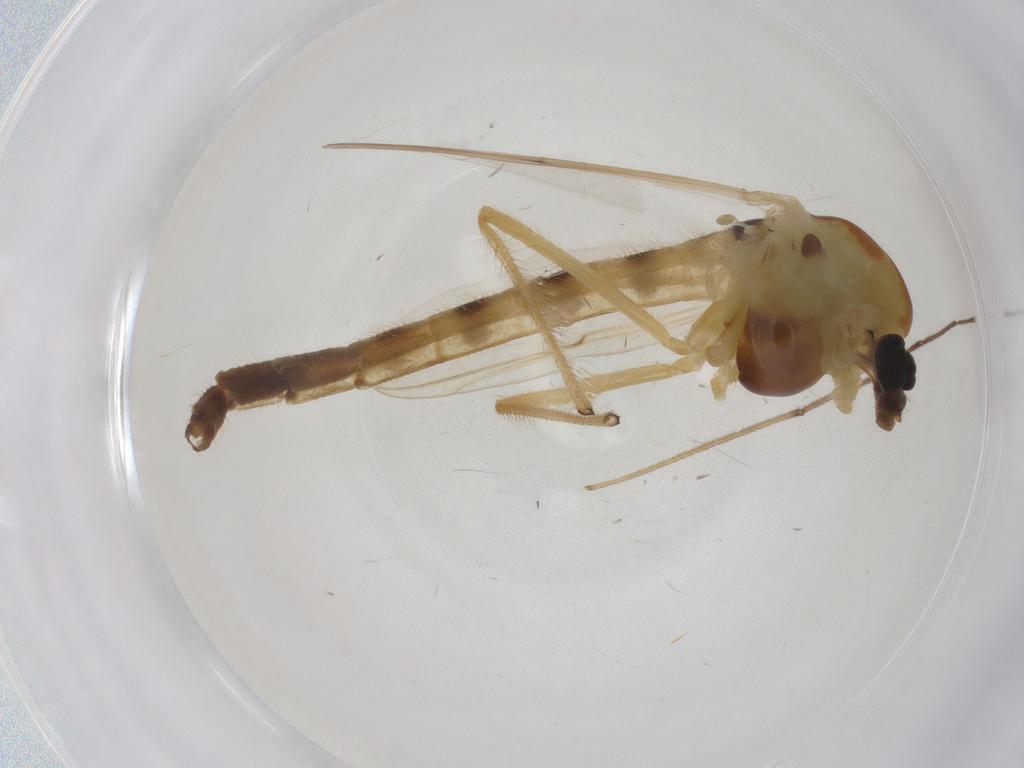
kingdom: Animalia
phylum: Arthropoda
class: Insecta
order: Diptera
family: Chironomidae
